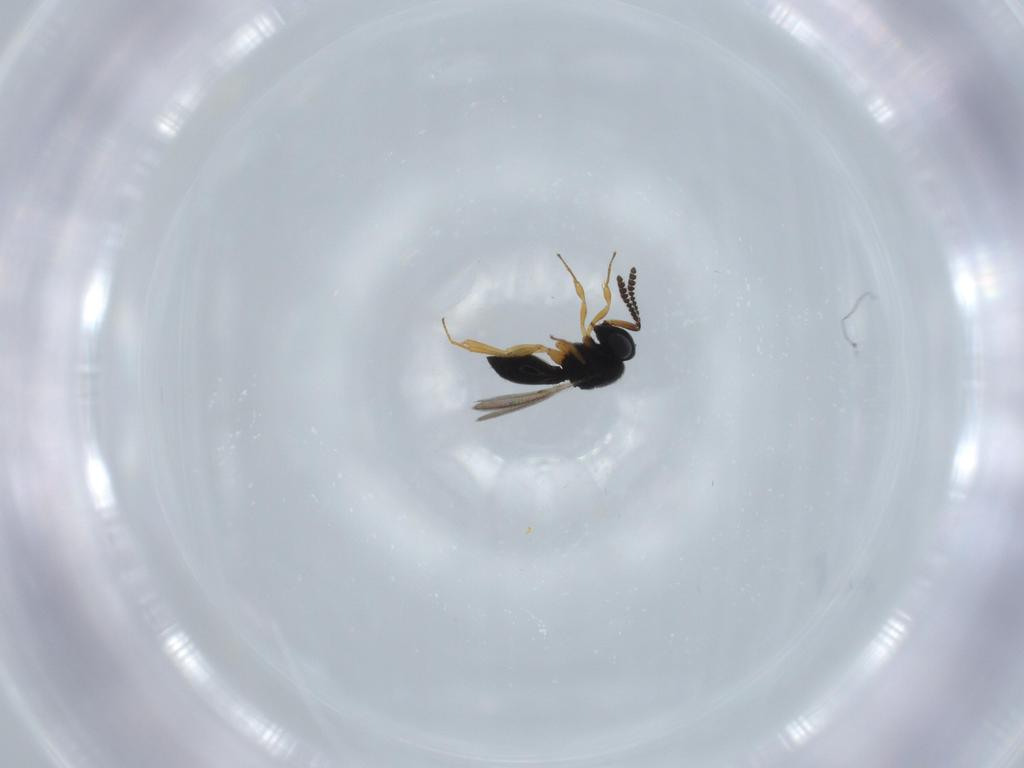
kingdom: Animalia
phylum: Arthropoda
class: Insecta
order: Hymenoptera
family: Scelionidae
